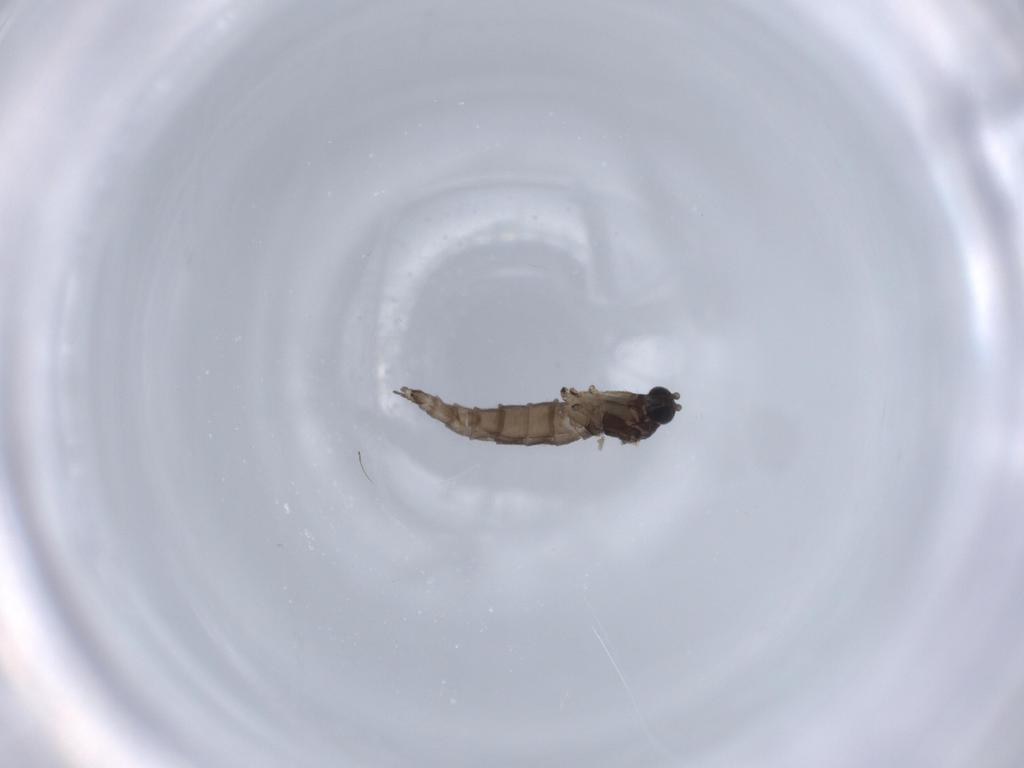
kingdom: Animalia
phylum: Arthropoda
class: Insecta
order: Diptera
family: Sciaridae
